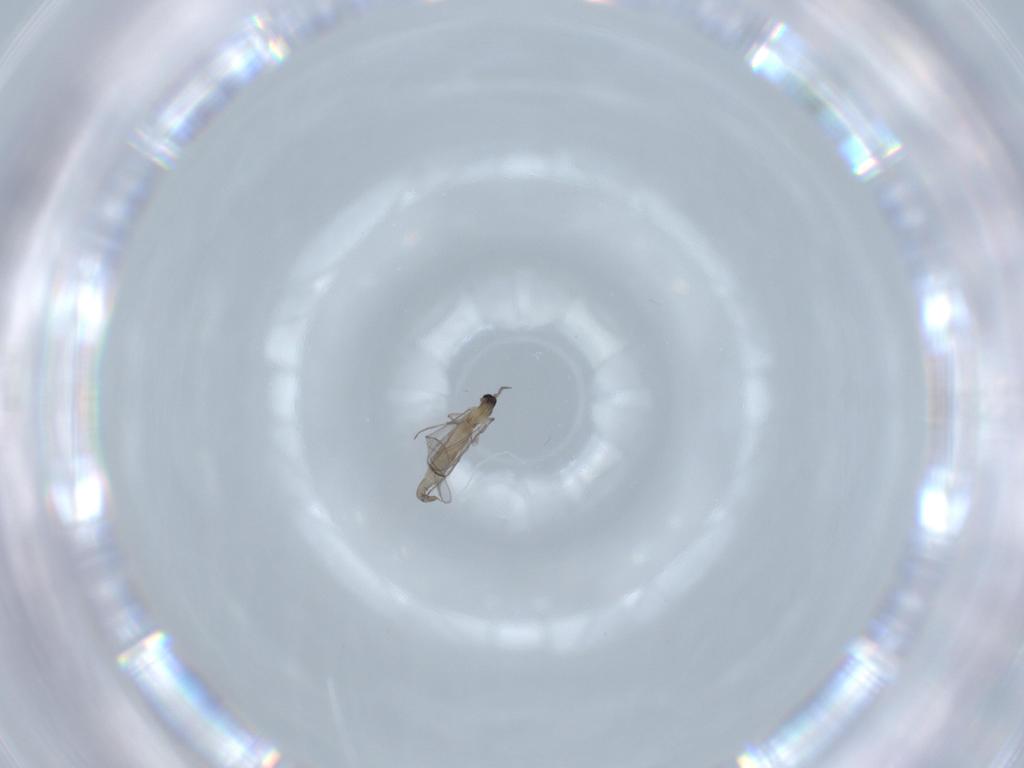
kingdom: Animalia
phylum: Arthropoda
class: Insecta
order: Diptera
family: Cecidomyiidae
